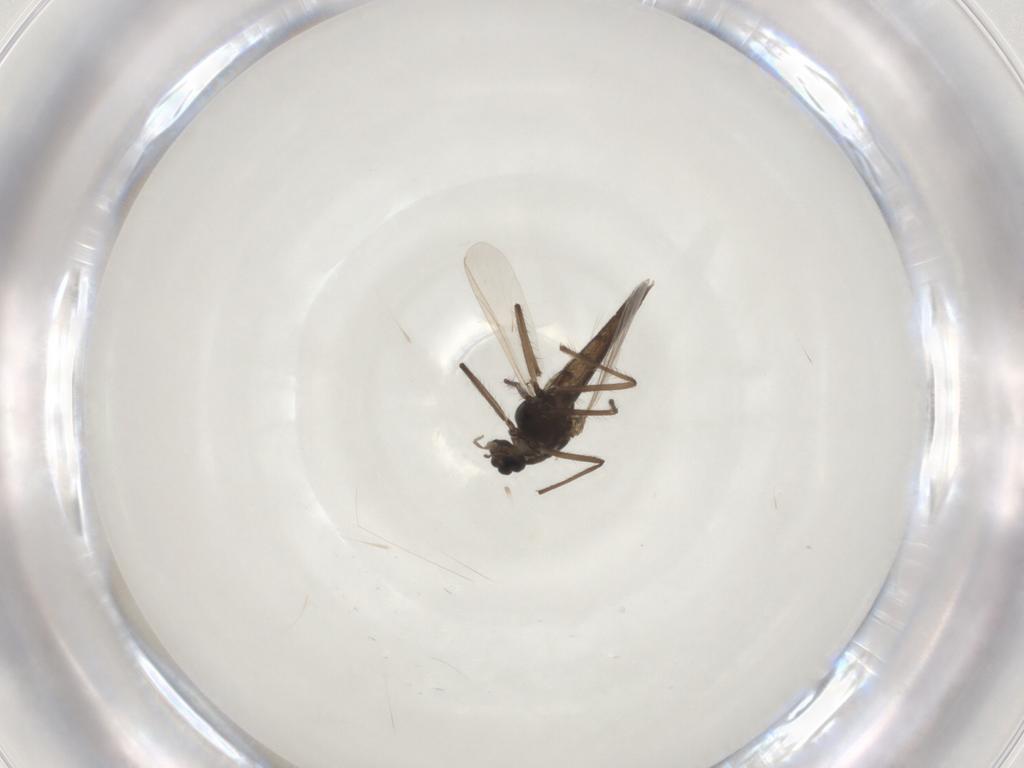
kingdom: Animalia
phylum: Arthropoda
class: Insecta
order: Diptera
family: Chironomidae
